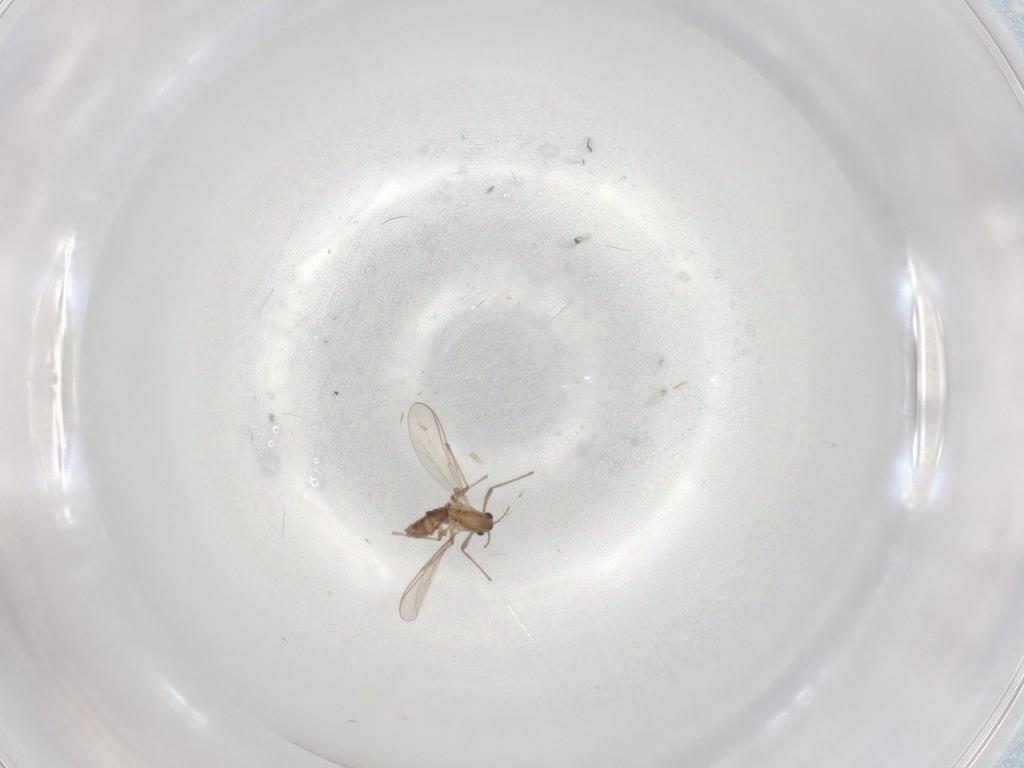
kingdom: Animalia
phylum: Arthropoda
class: Insecta
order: Diptera
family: Chironomidae
